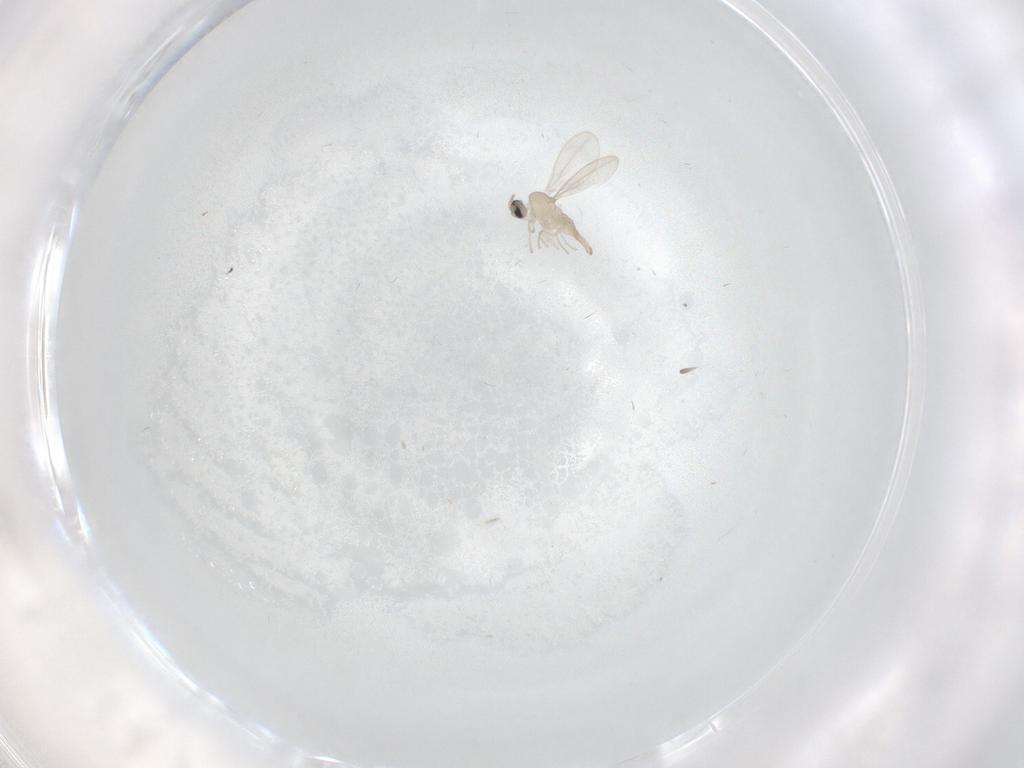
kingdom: Animalia
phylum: Arthropoda
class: Insecta
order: Diptera
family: Cecidomyiidae
